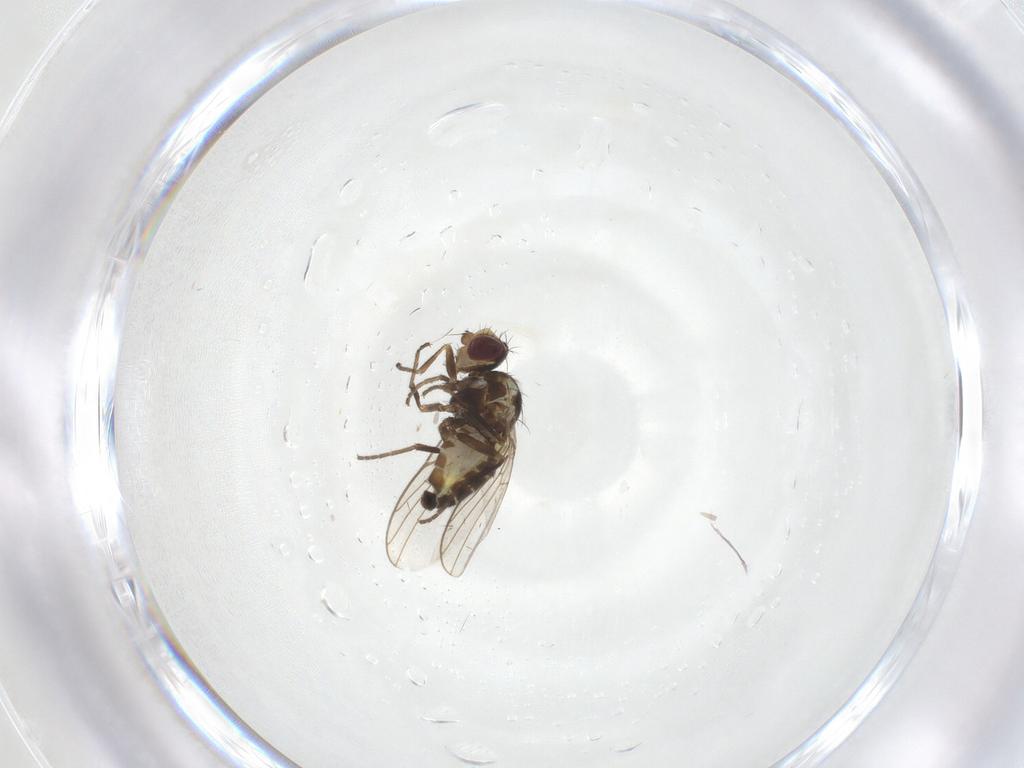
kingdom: Animalia
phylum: Arthropoda
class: Insecta
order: Diptera
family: Agromyzidae
